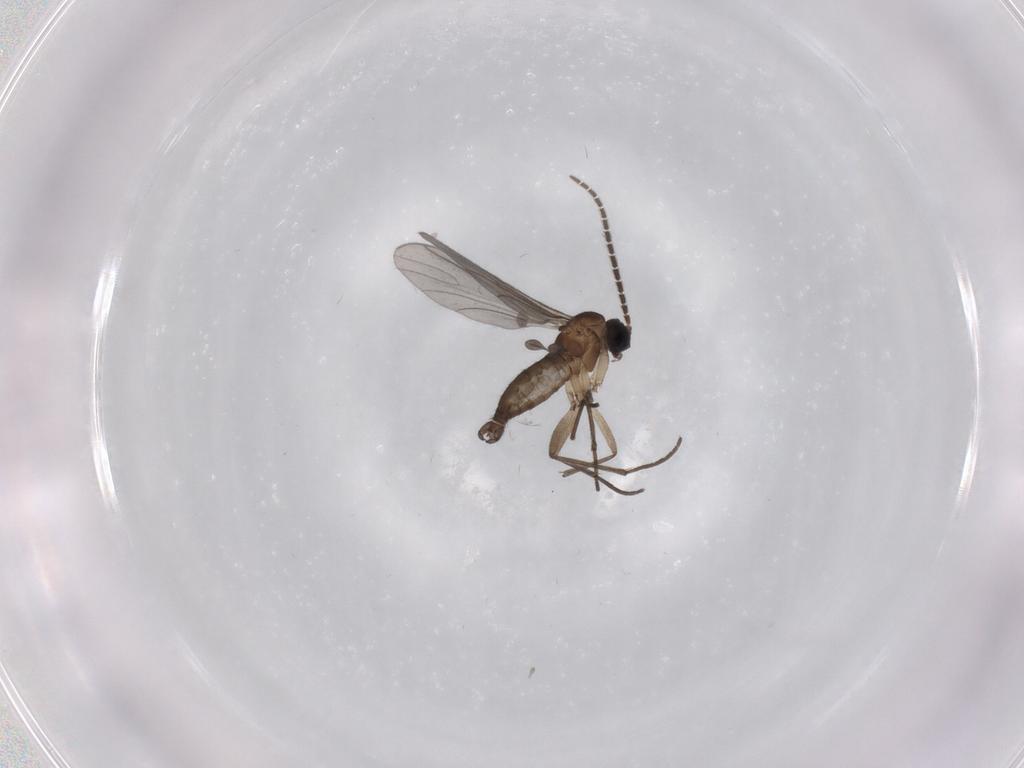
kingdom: Animalia
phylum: Arthropoda
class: Insecta
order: Diptera
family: Sciaridae
